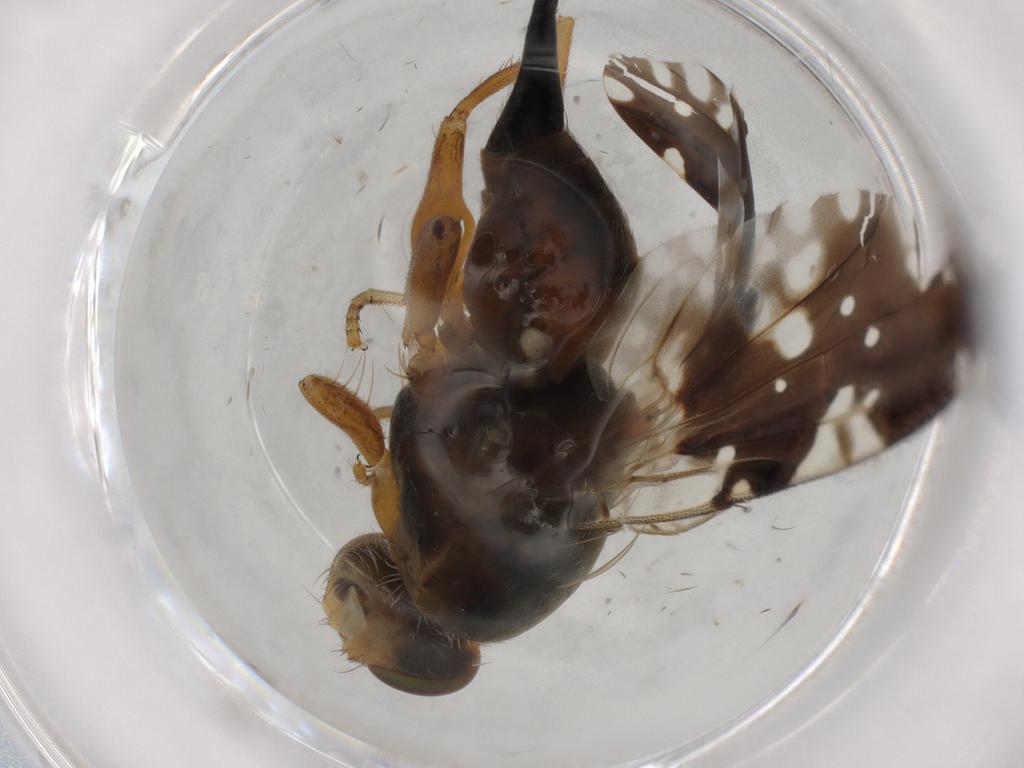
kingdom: Animalia
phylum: Arthropoda
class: Insecta
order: Diptera
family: Tephritidae
